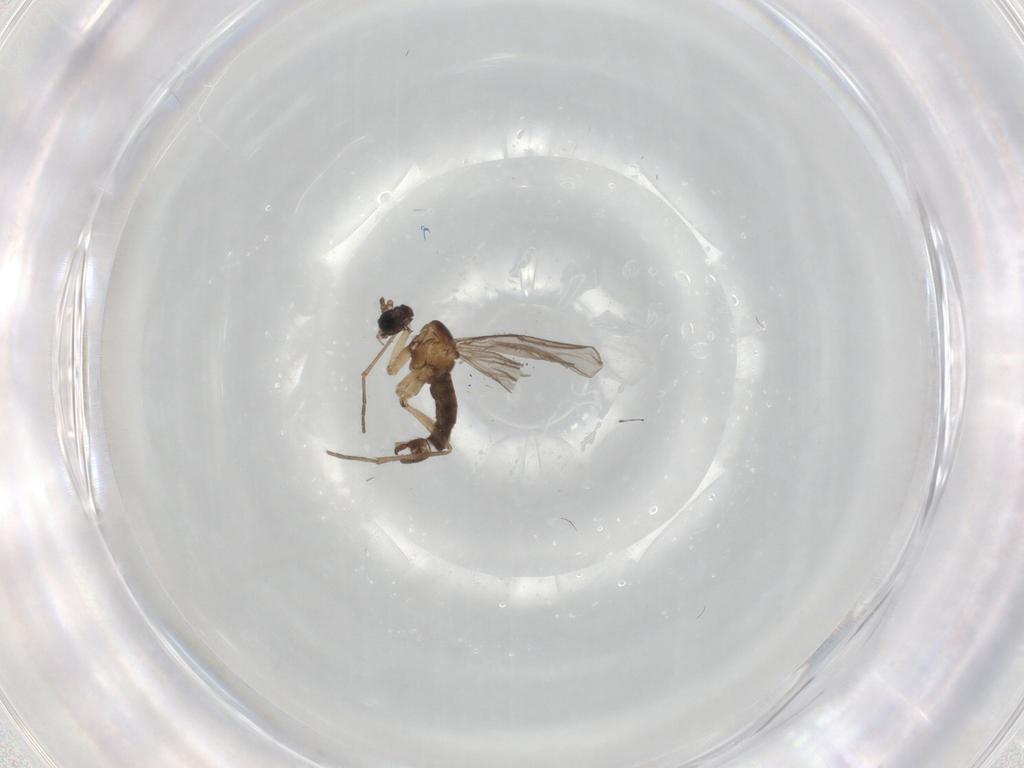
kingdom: Animalia
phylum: Arthropoda
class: Insecta
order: Diptera
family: Sciaridae
